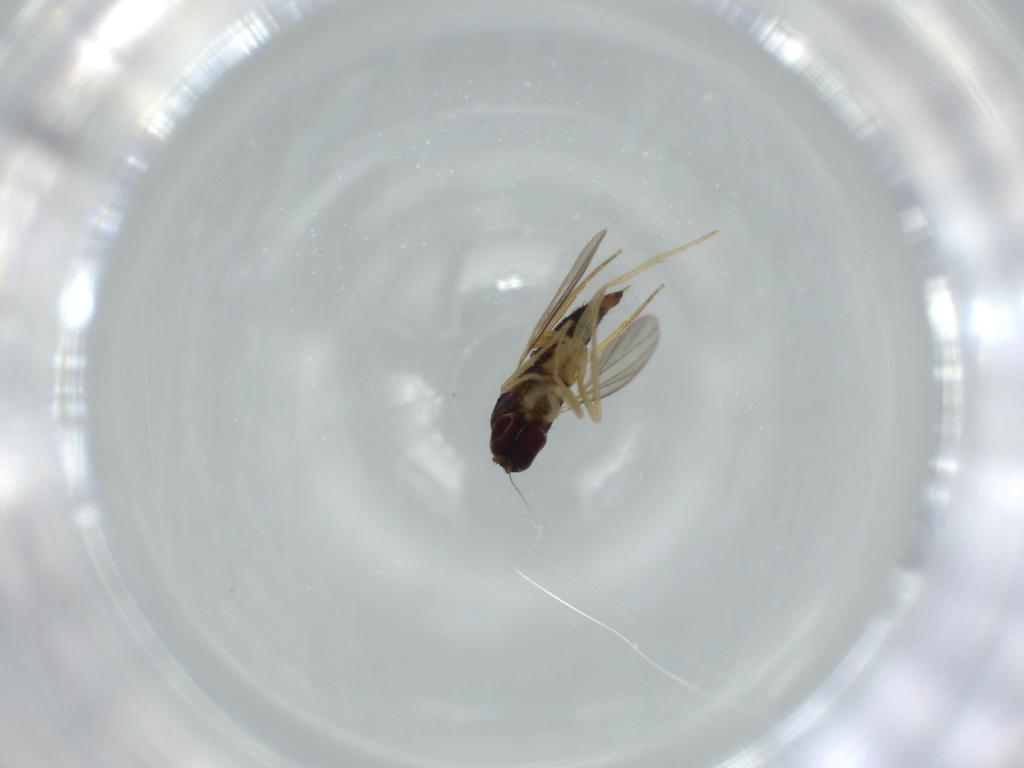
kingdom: Animalia
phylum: Arthropoda
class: Insecta
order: Diptera
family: Dolichopodidae
